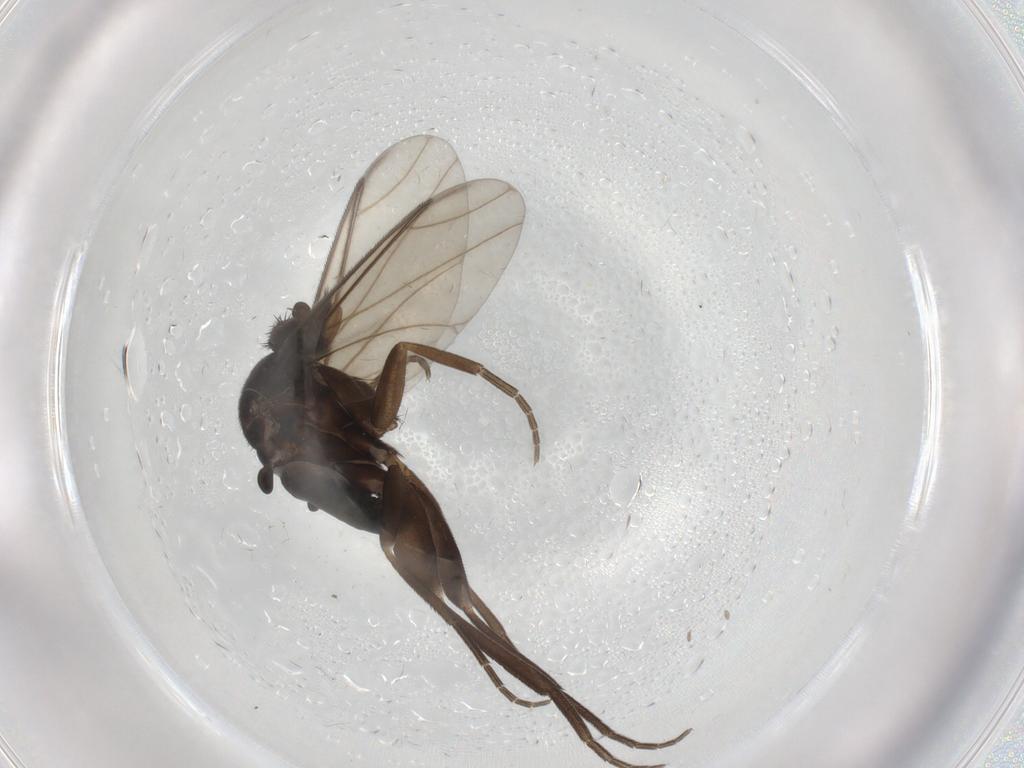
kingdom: Animalia
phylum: Arthropoda
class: Insecta
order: Diptera
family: Phoridae
